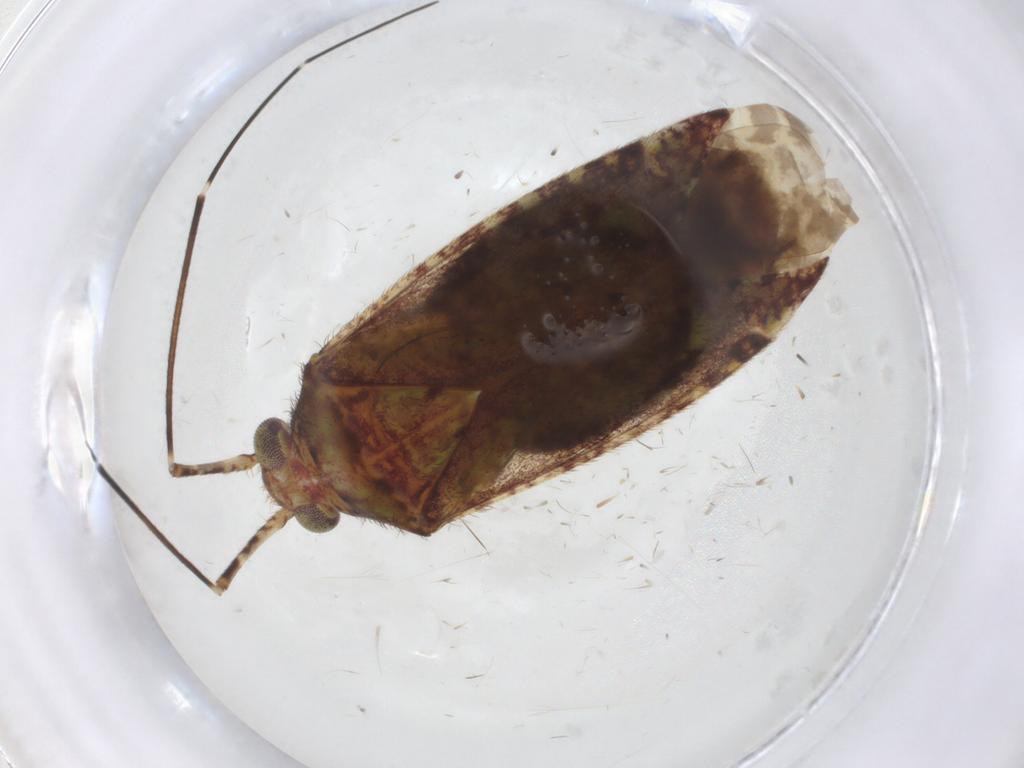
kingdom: Animalia
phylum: Arthropoda
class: Insecta
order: Hemiptera
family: Miridae
